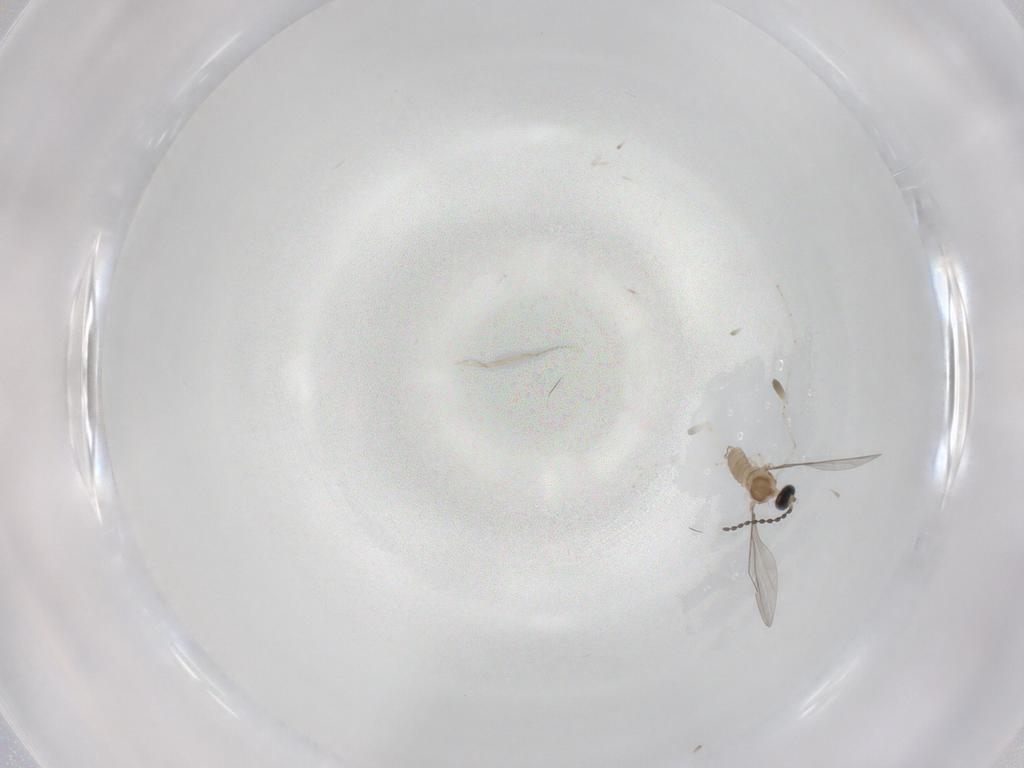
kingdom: Animalia
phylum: Arthropoda
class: Insecta
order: Diptera
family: Cecidomyiidae
